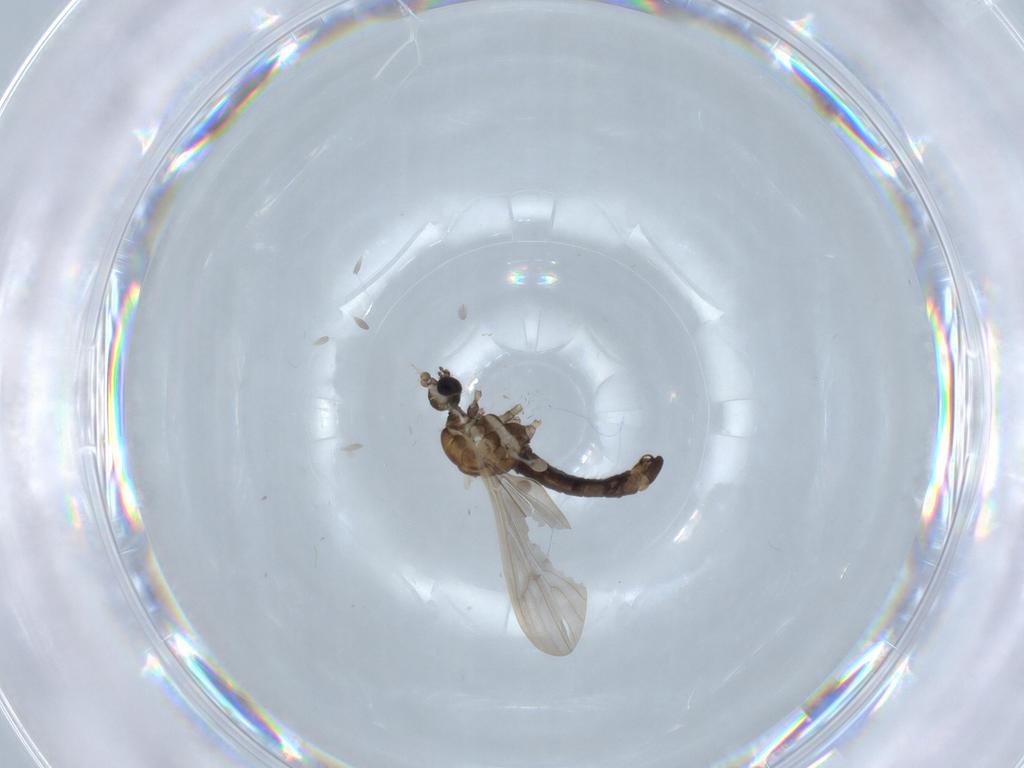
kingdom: Animalia
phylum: Arthropoda
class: Insecta
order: Diptera
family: Limoniidae
